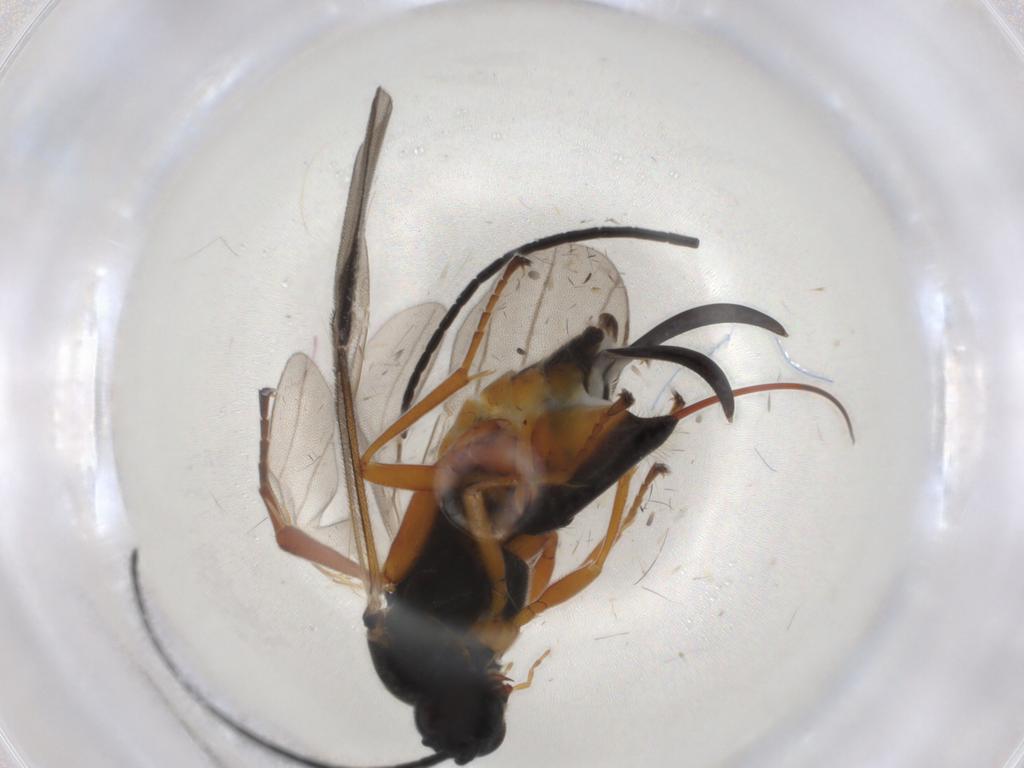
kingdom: Animalia
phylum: Arthropoda
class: Insecta
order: Lepidoptera
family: Tortricidae
